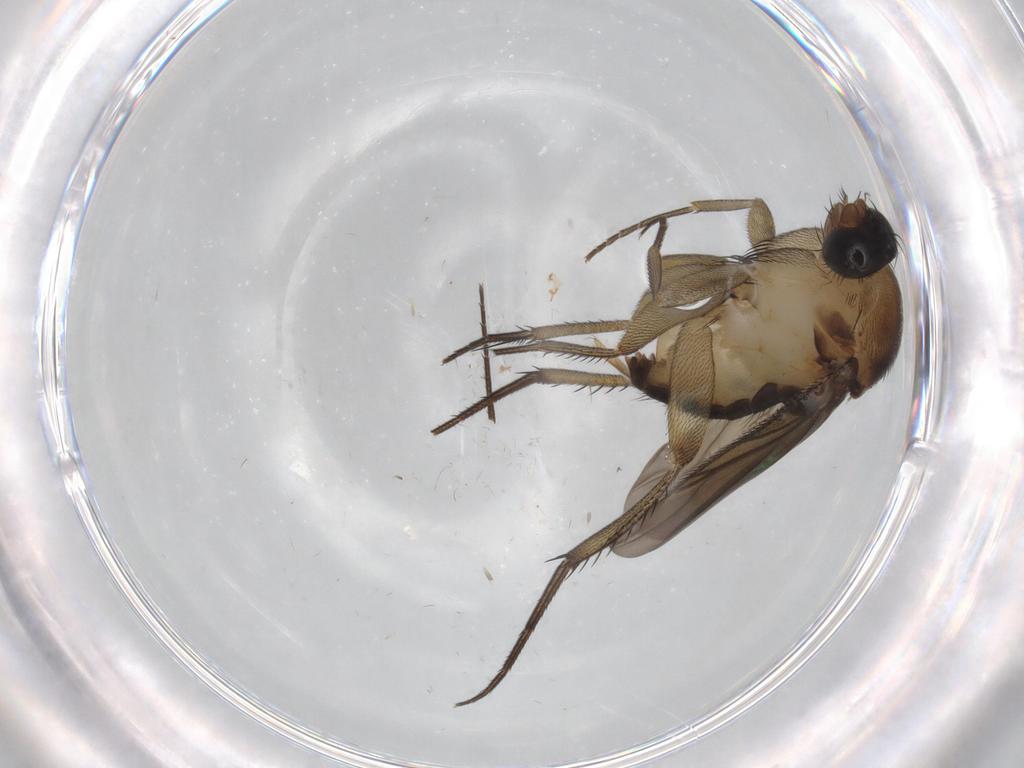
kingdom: Animalia
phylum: Arthropoda
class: Insecta
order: Diptera
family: Phoridae
